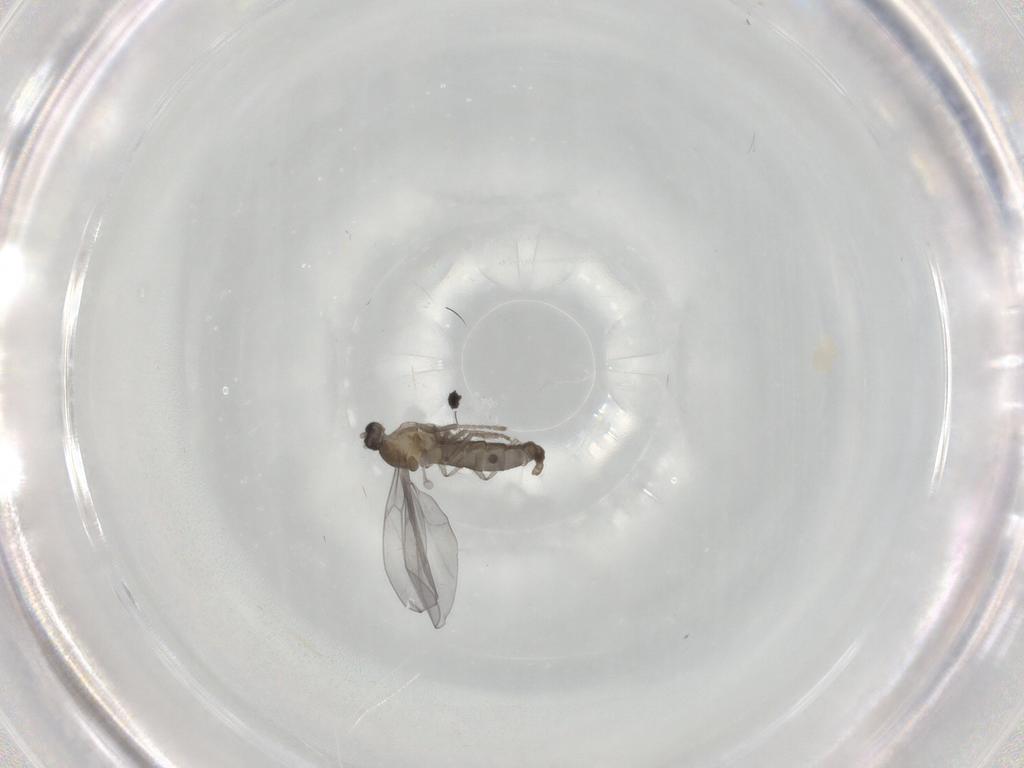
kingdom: Animalia
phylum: Arthropoda
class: Insecta
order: Diptera
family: Cecidomyiidae
